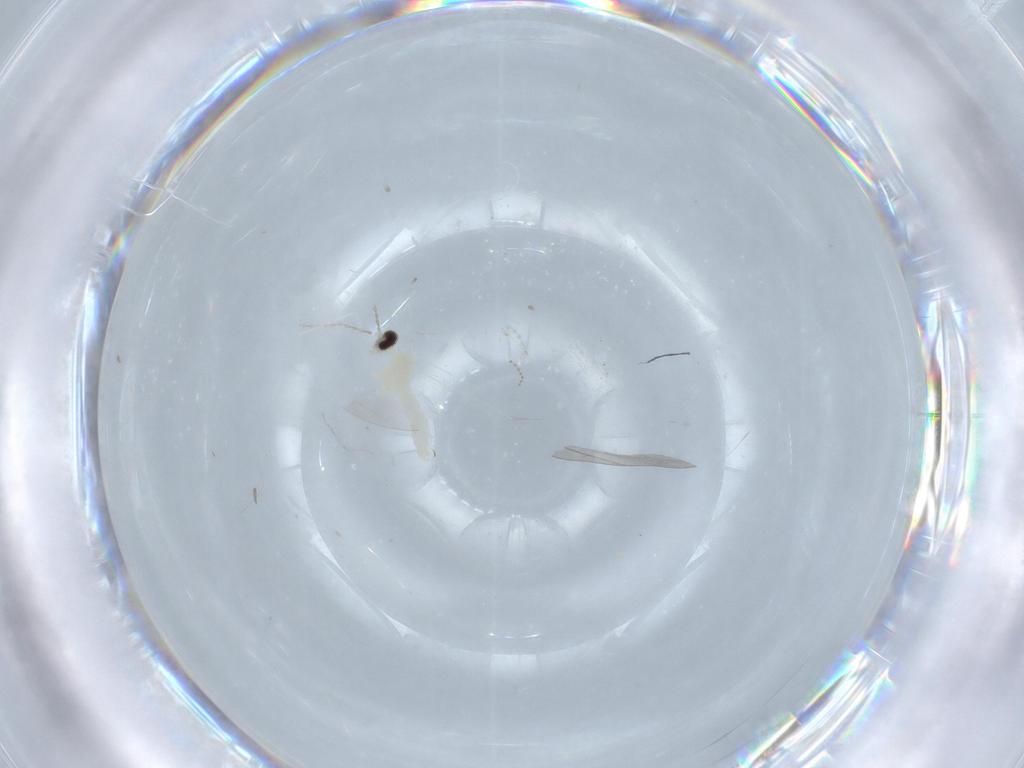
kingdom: Animalia
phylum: Arthropoda
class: Insecta
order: Diptera
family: Cecidomyiidae
